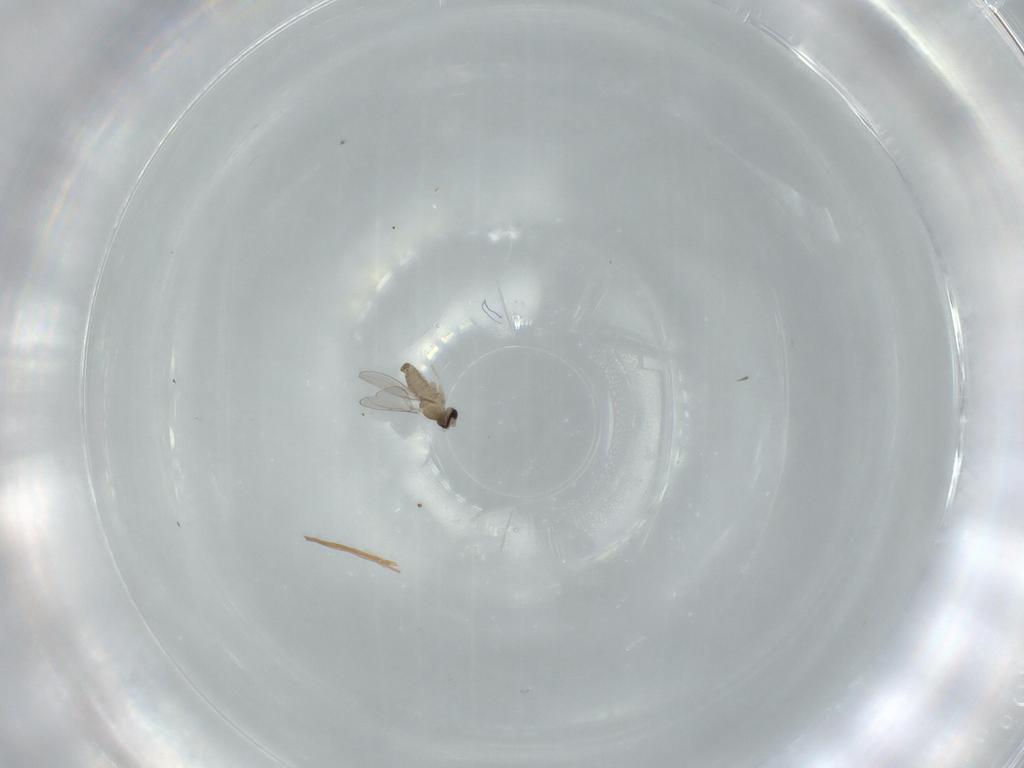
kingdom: Animalia
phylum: Arthropoda
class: Insecta
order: Diptera
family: Cecidomyiidae
